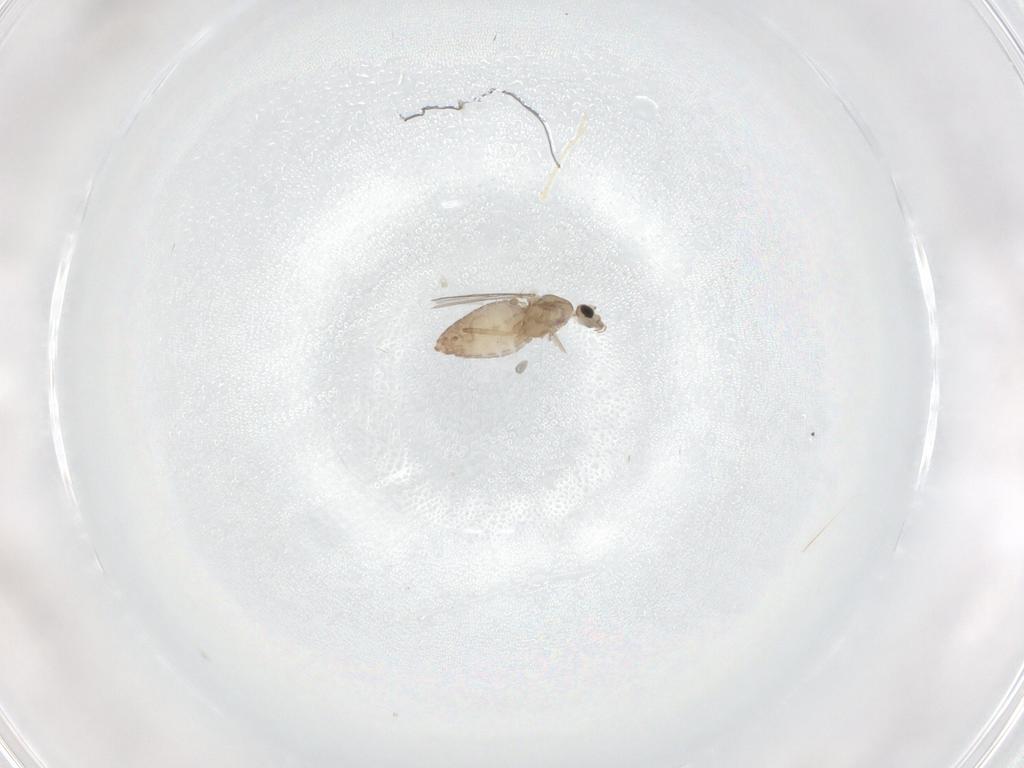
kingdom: Animalia
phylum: Arthropoda
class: Insecta
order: Diptera
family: Chironomidae
